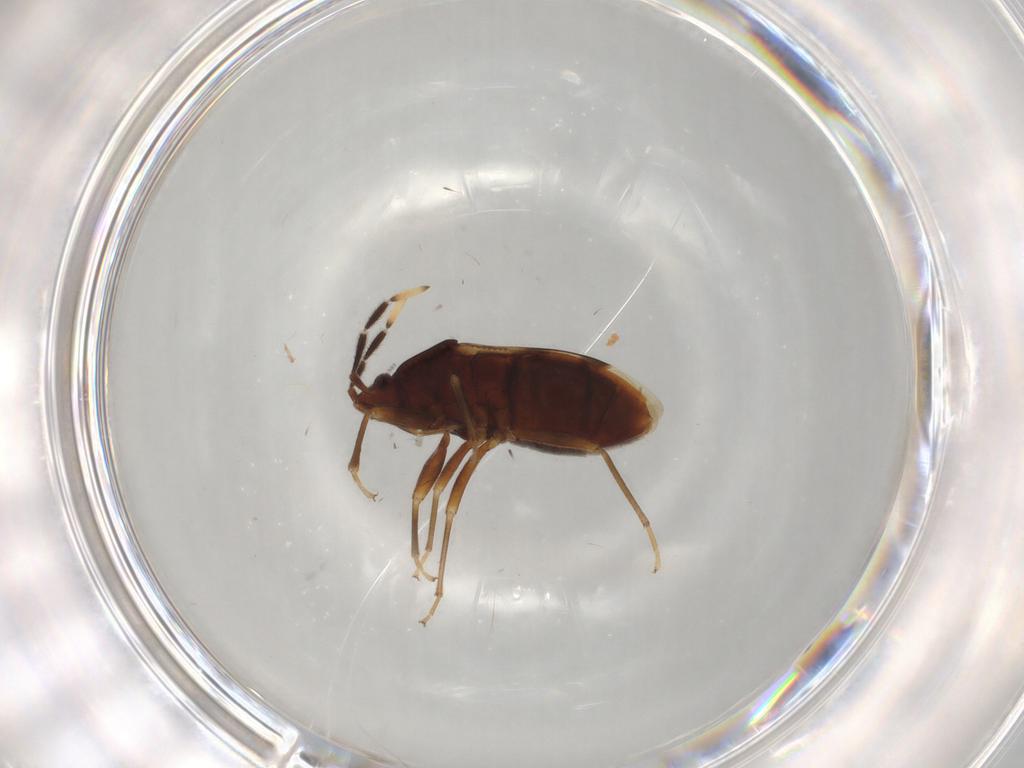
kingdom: Animalia
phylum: Arthropoda
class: Insecta
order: Hemiptera
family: Rhyparochromidae
